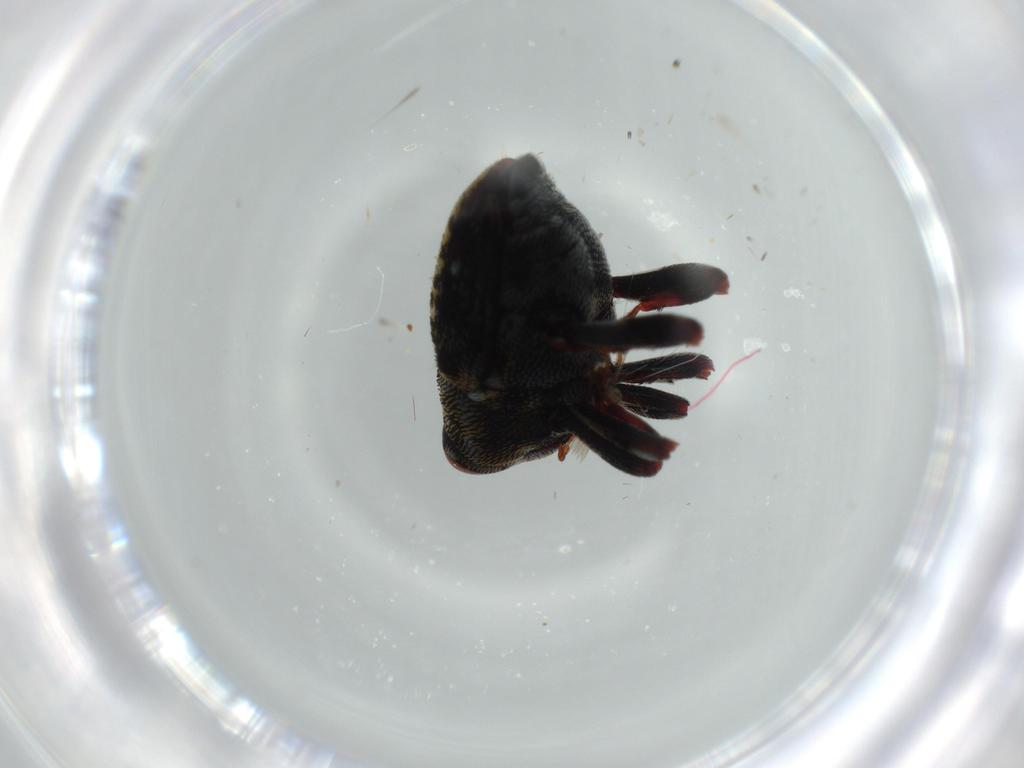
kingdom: Animalia
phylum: Arthropoda
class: Insecta
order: Coleoptera
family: Curculionidae
